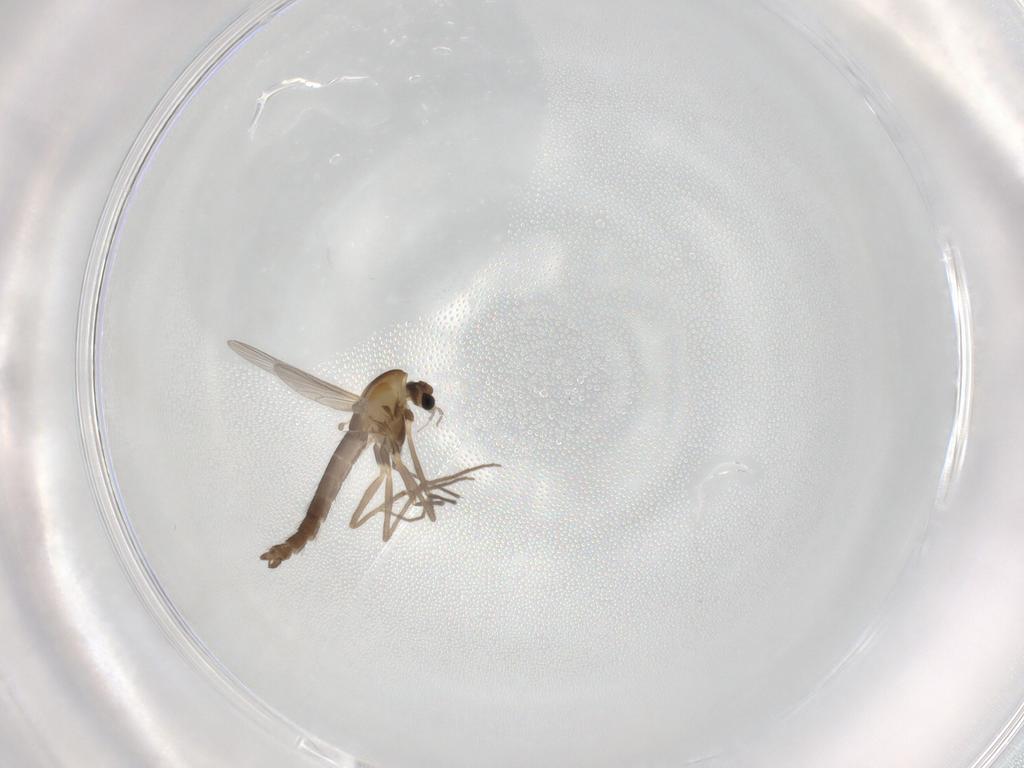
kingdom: Animalia
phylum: Arthropoda
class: Insecta
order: Diptera
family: Chironomidae
